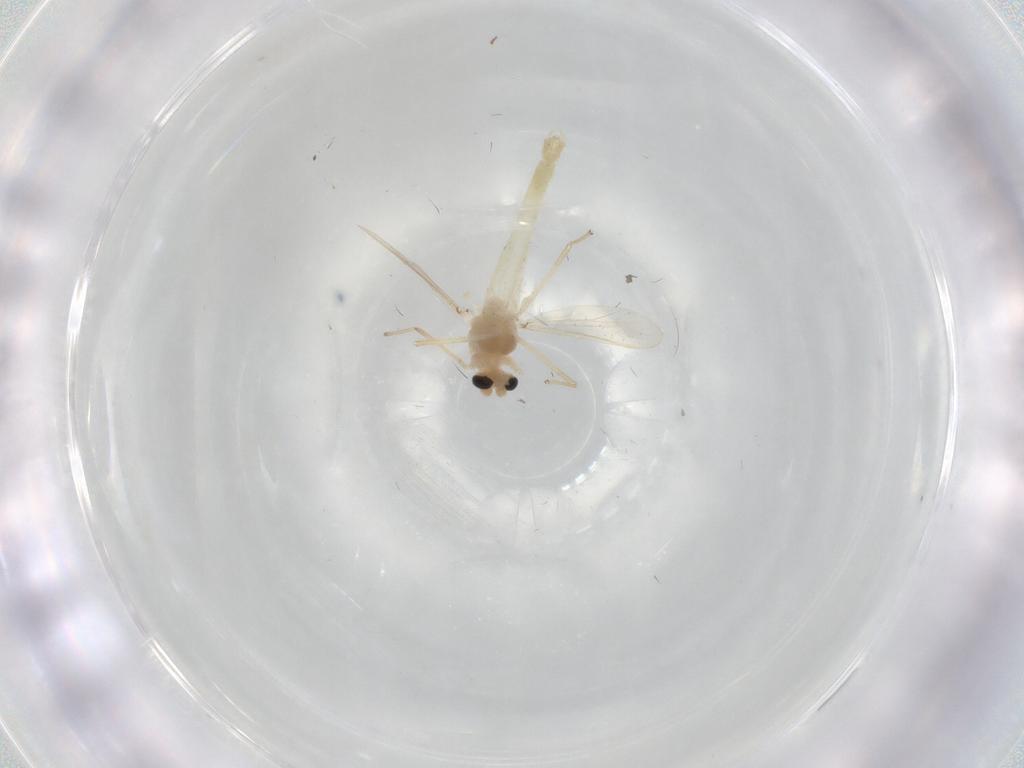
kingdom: Animalia
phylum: Arthropoda
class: Insecta
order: Diptera
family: Chironomidae
